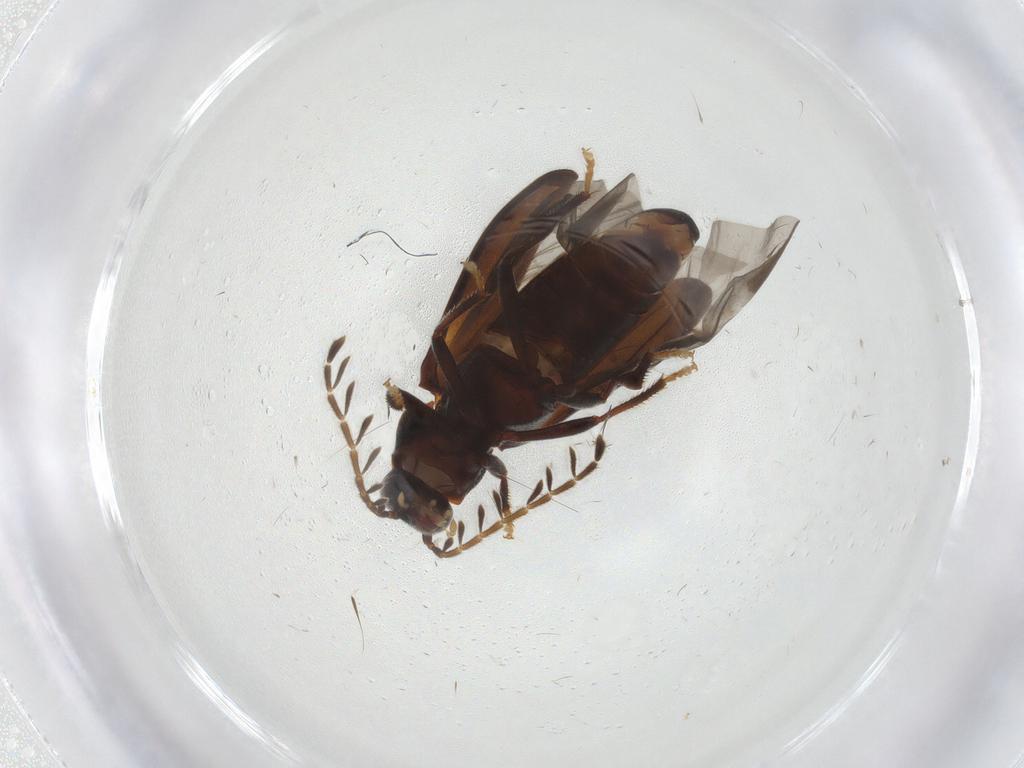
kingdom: Animalia
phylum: Arthropoda
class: Insecta
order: Coleoptera
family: Ptilodactylidae
